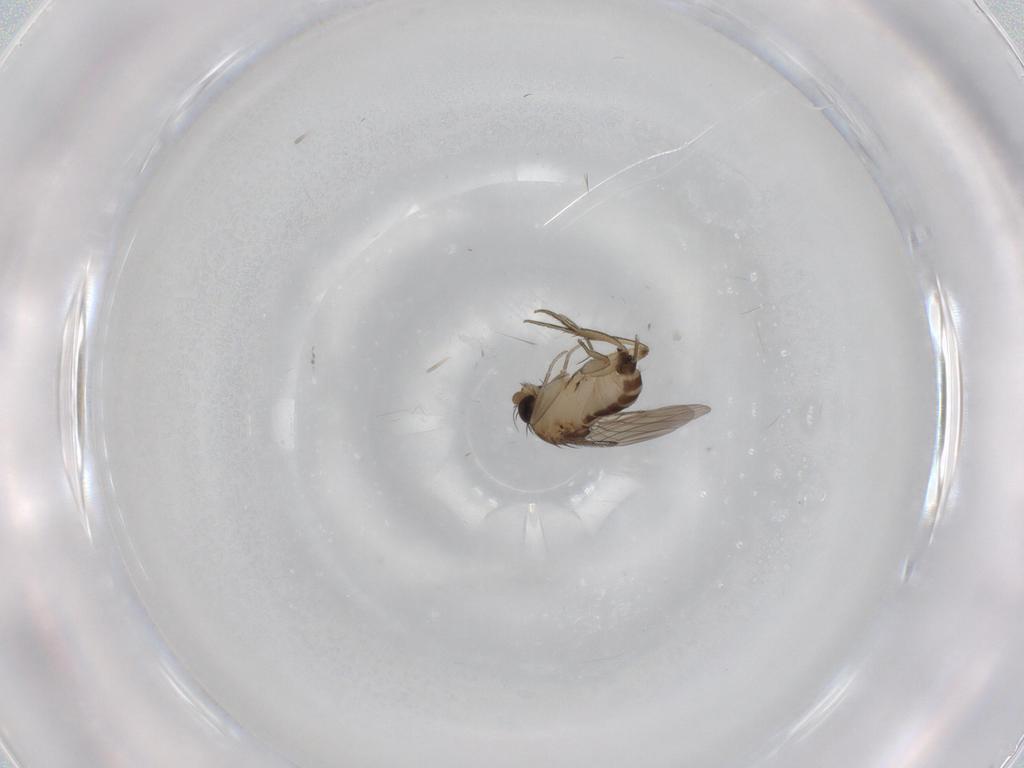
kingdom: Animalia
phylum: Arthropoda
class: Insecta
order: Diptera
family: Phoridae
